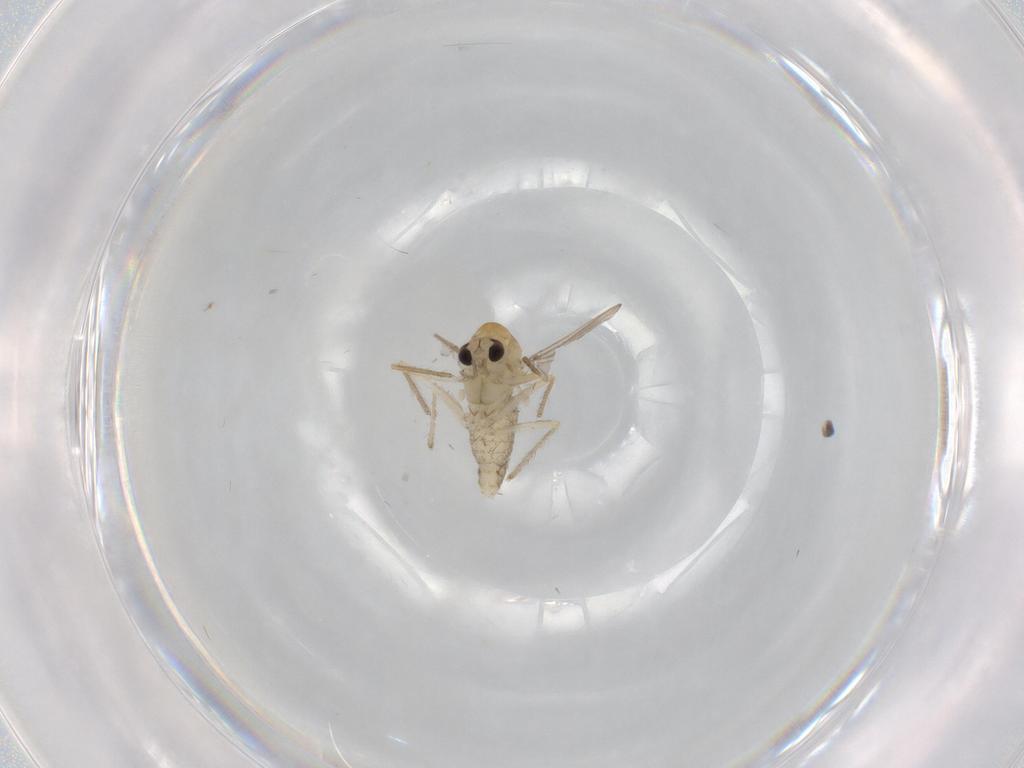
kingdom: Animalia
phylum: Arthropoda
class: Insecta
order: Diptera
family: Chironomidae
